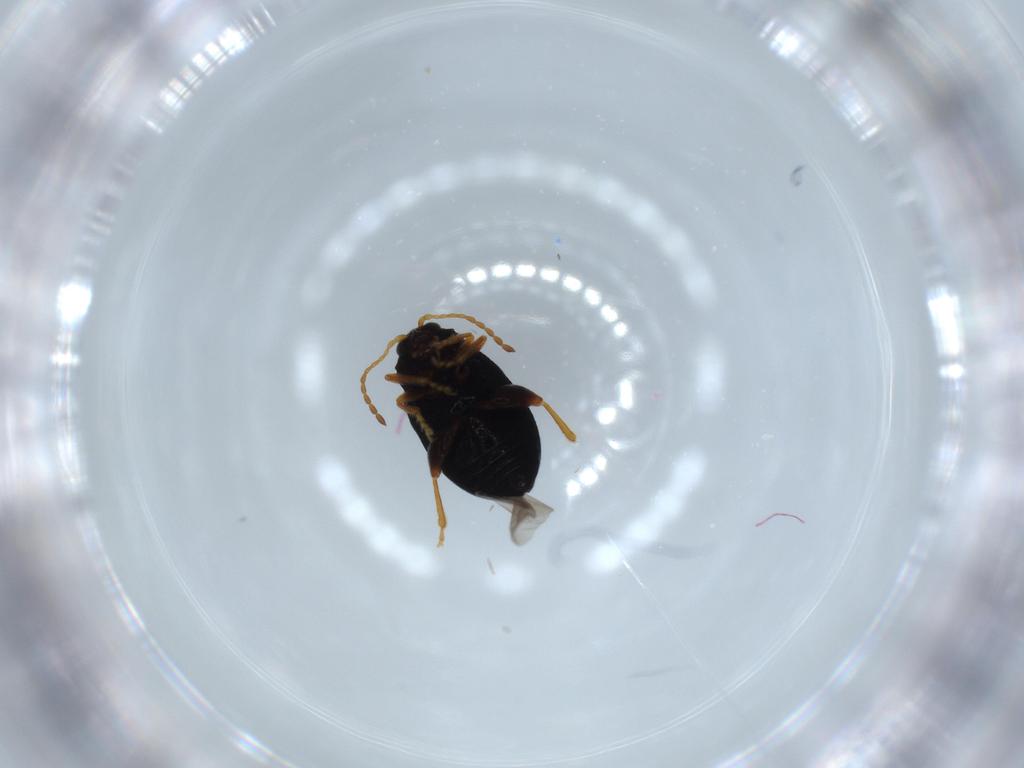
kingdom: Animalia
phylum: Arthropoda
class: Insecta
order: Coleoptera
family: Chrysomelidae
